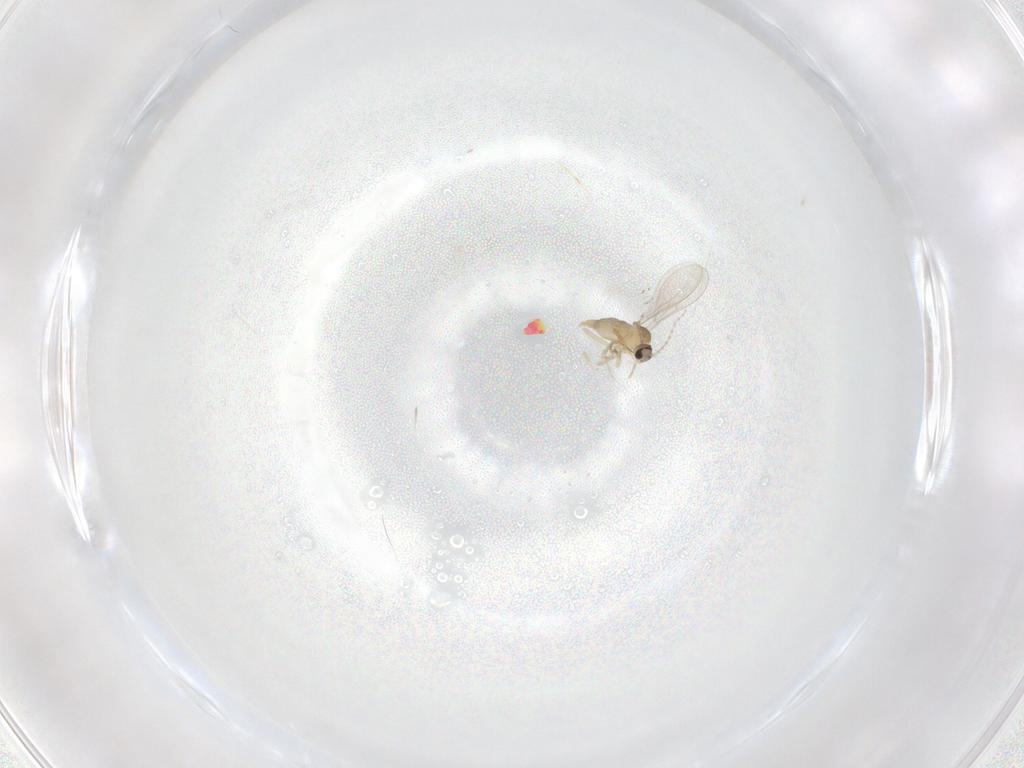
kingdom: Animalia
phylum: Arthropoda
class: Insecta
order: Diptera
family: Cecidomyiidae
